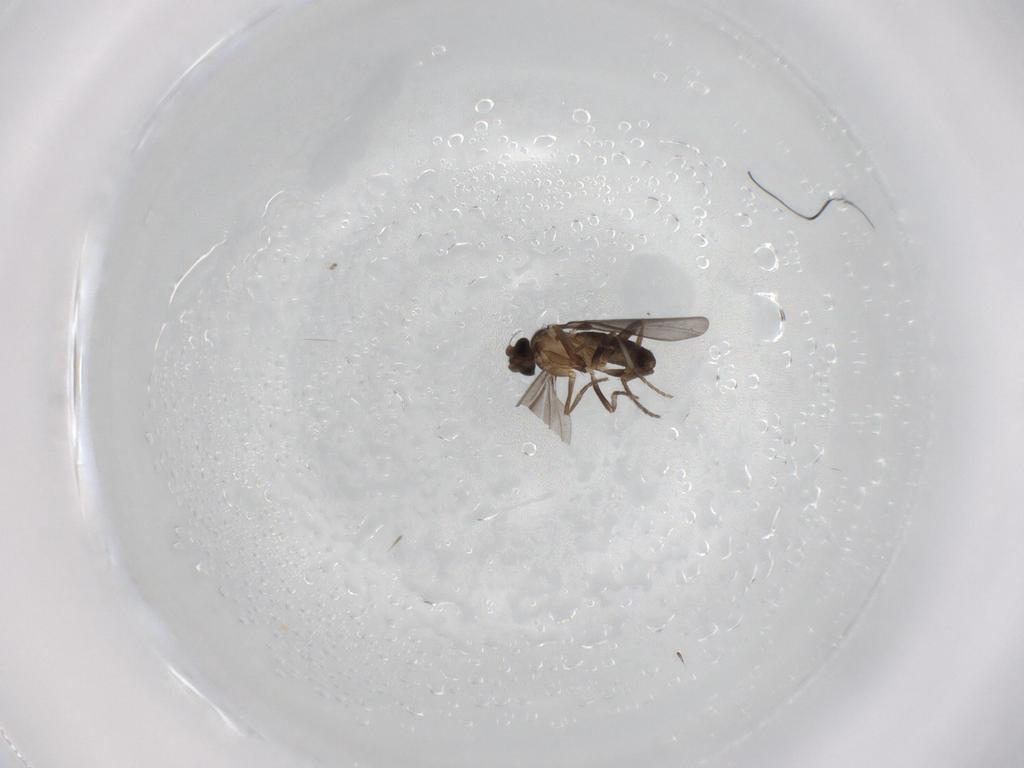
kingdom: Animalia
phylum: Arthropoda
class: Insecta
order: Diptera
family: Phoridae
